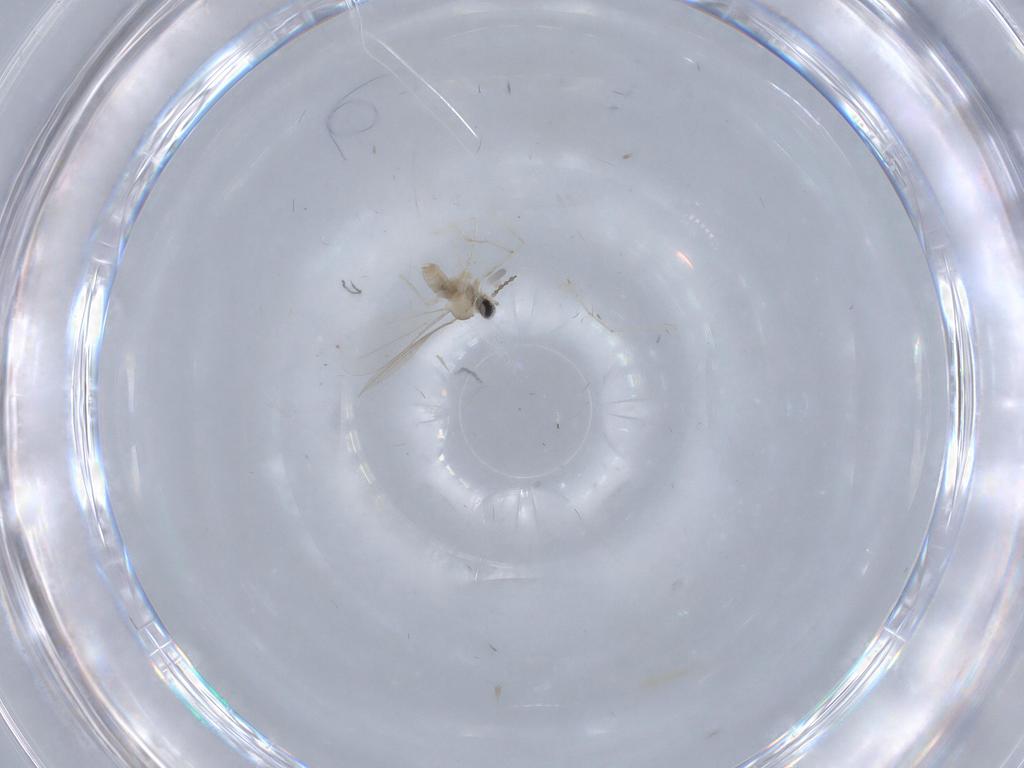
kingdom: Animalia
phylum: Arthropoda
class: Insecta
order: Diptera
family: Cecidomyiidae
